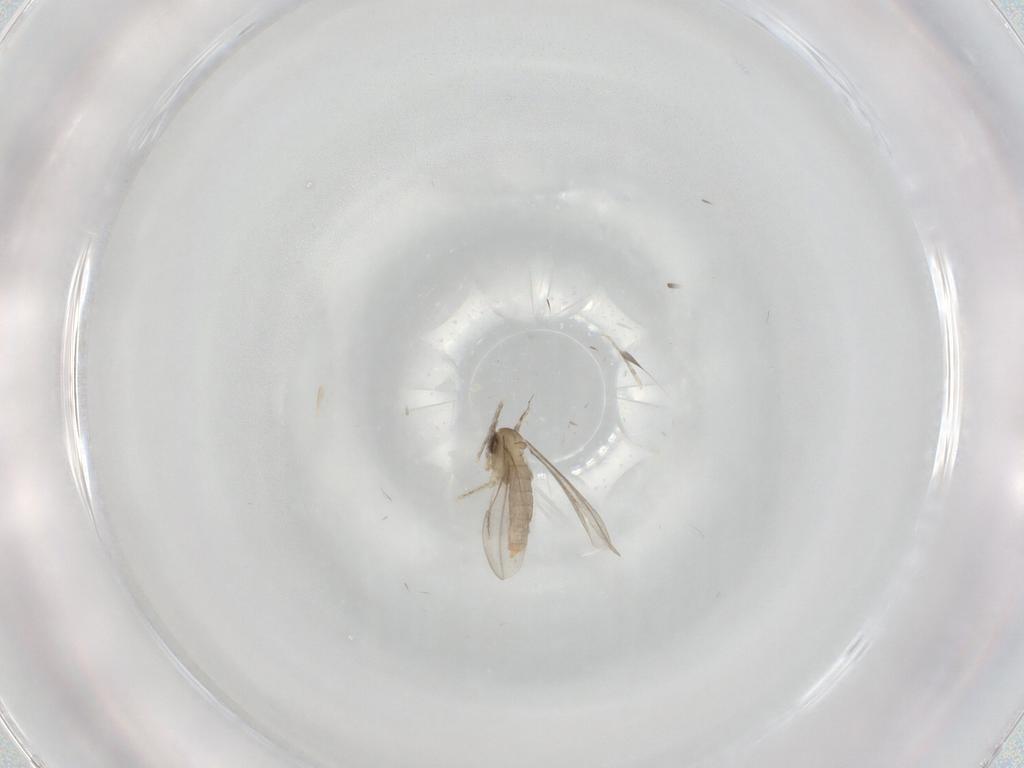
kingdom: Animalia
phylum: Arthropoda
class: Insecta
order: Diptera
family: Cecidomyiidae
